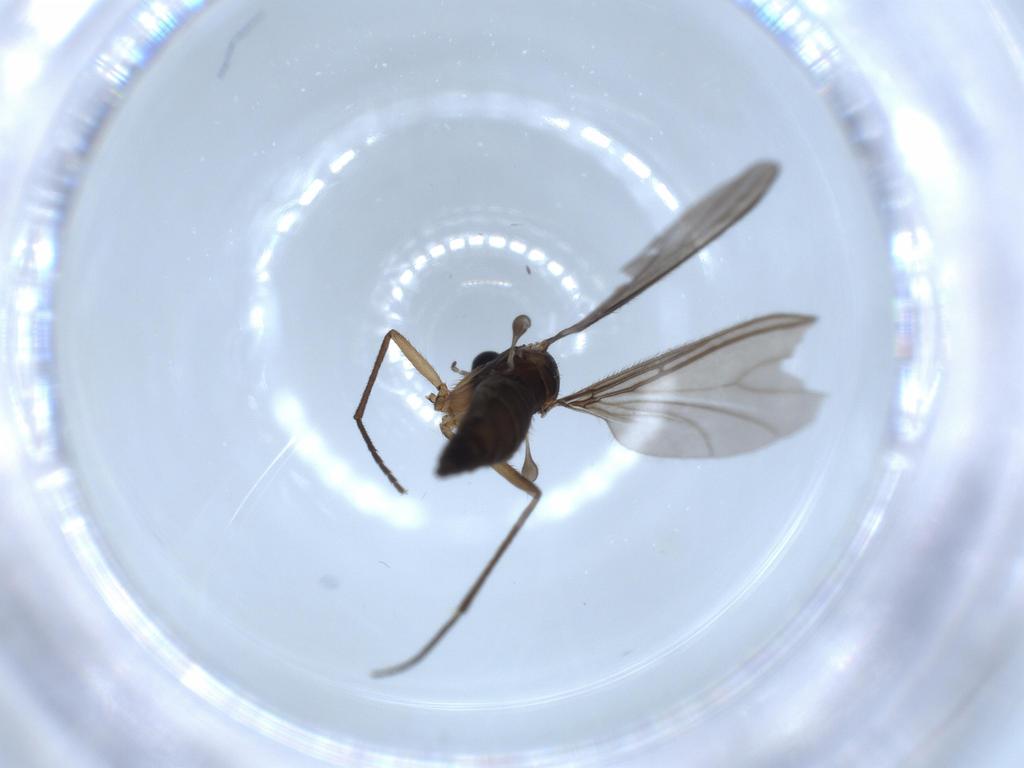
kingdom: Animalia
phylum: Arthropoda
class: Insecta
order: Diptera
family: Sciaridae
